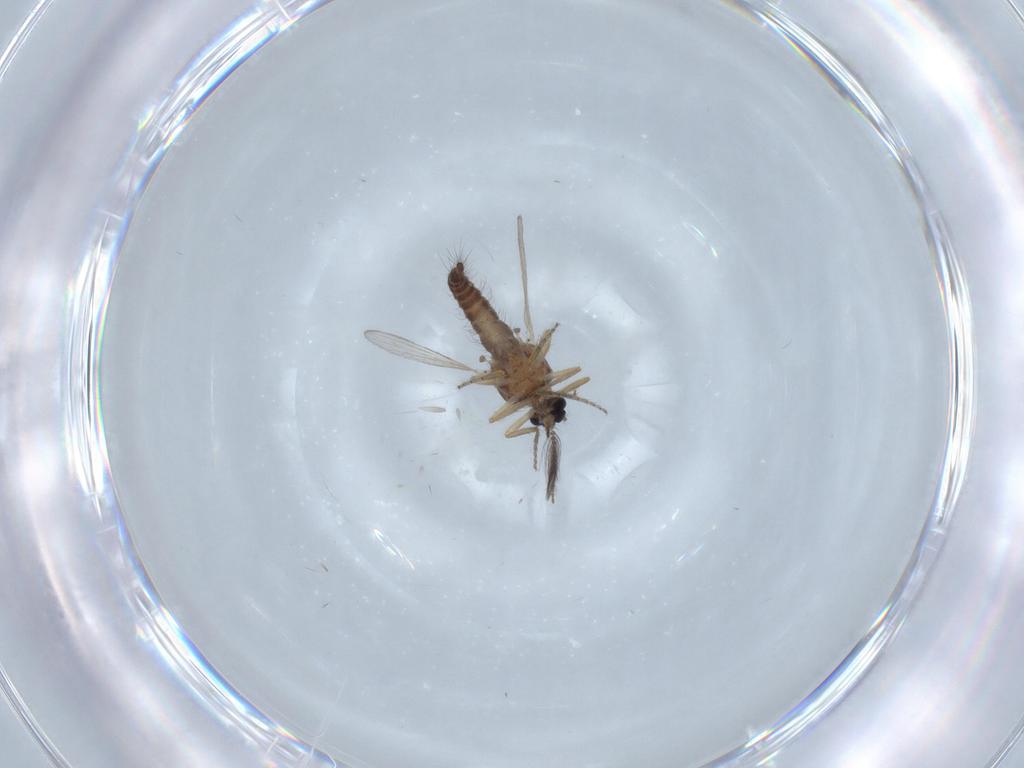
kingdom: Animalia
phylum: Arthropoda
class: Insecta
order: Diptera
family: Ceratopogonidae
